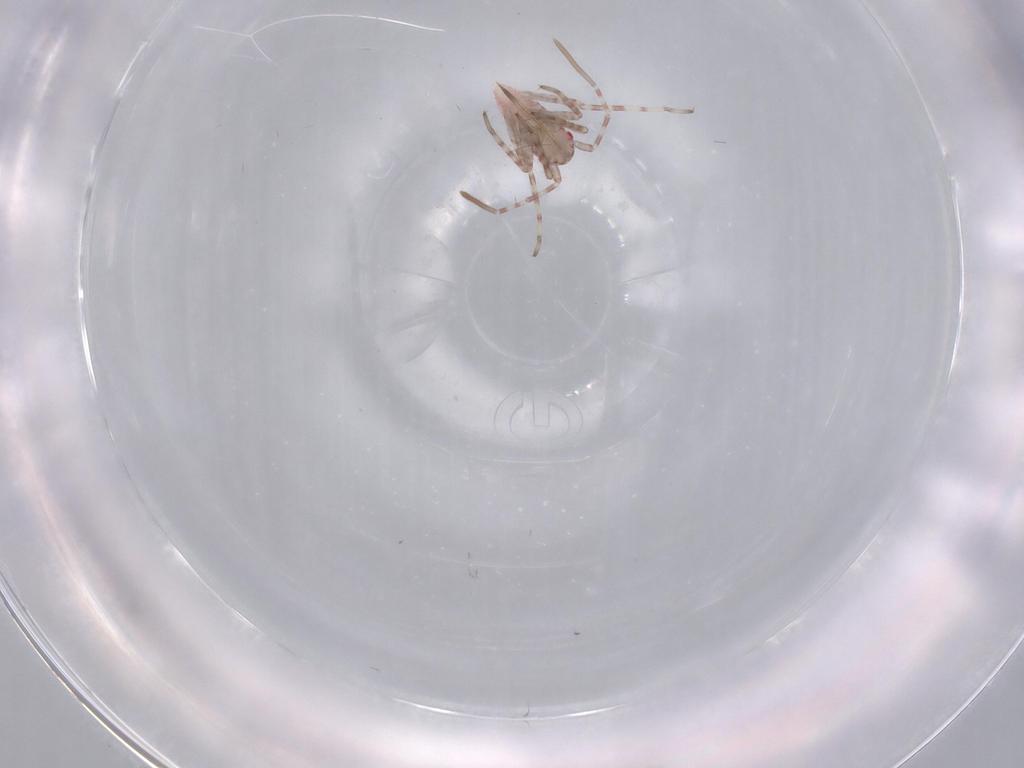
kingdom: Animalia
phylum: Arthropoda
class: Insecta
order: Hemiptera
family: Miridae
